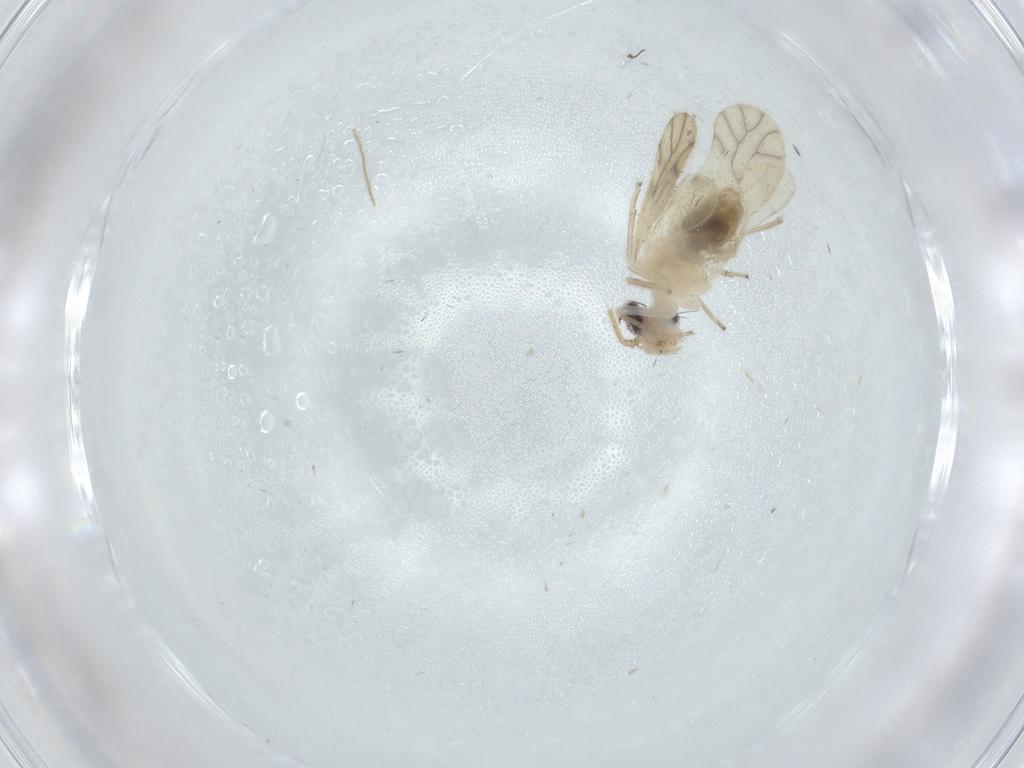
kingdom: Animalia
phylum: Arthropoda
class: Insecta
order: Psocodea
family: Caeciliusidae
